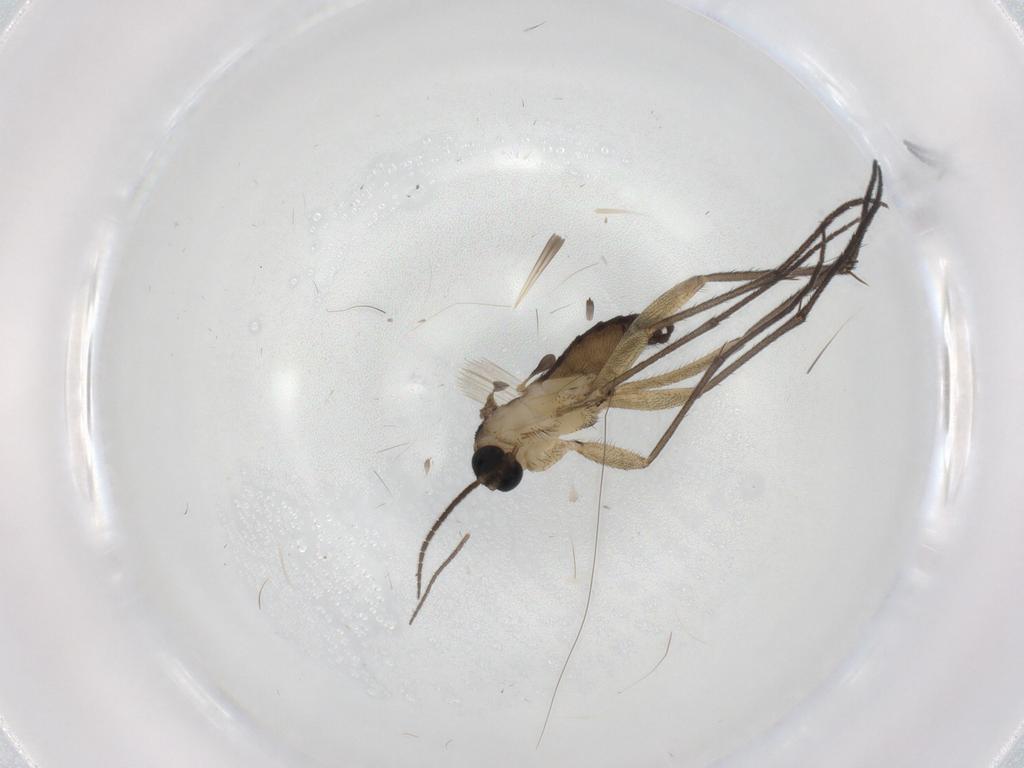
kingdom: Animalia
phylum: Arthropoda
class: Insecta
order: Diptera
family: Sciaridae
